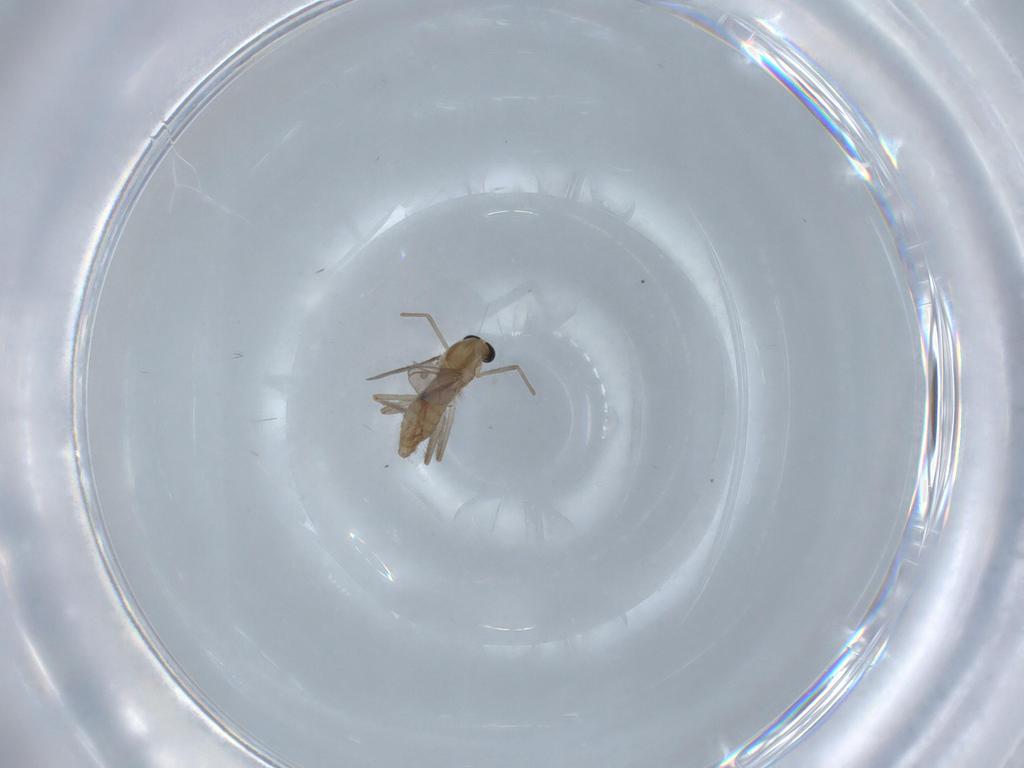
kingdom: Animalia
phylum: Arthropoda
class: Insecta
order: Diptera
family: Chironomidae
